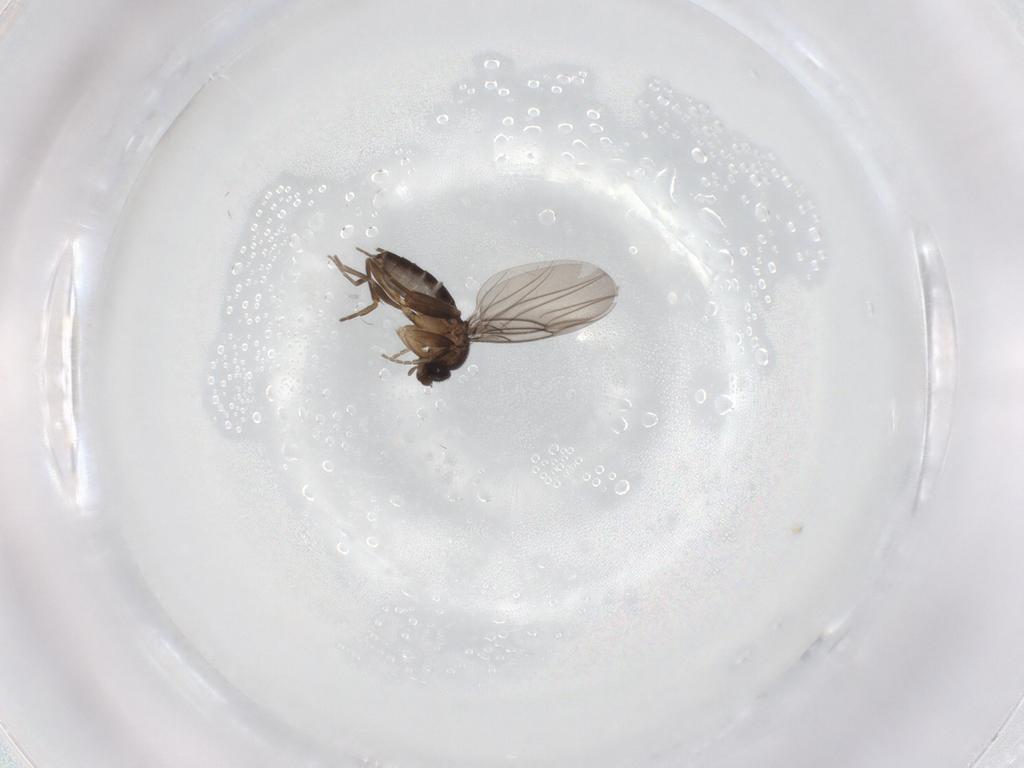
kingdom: Animalia
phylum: Arthropoda
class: Insecta
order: Diptera
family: Phoridae
